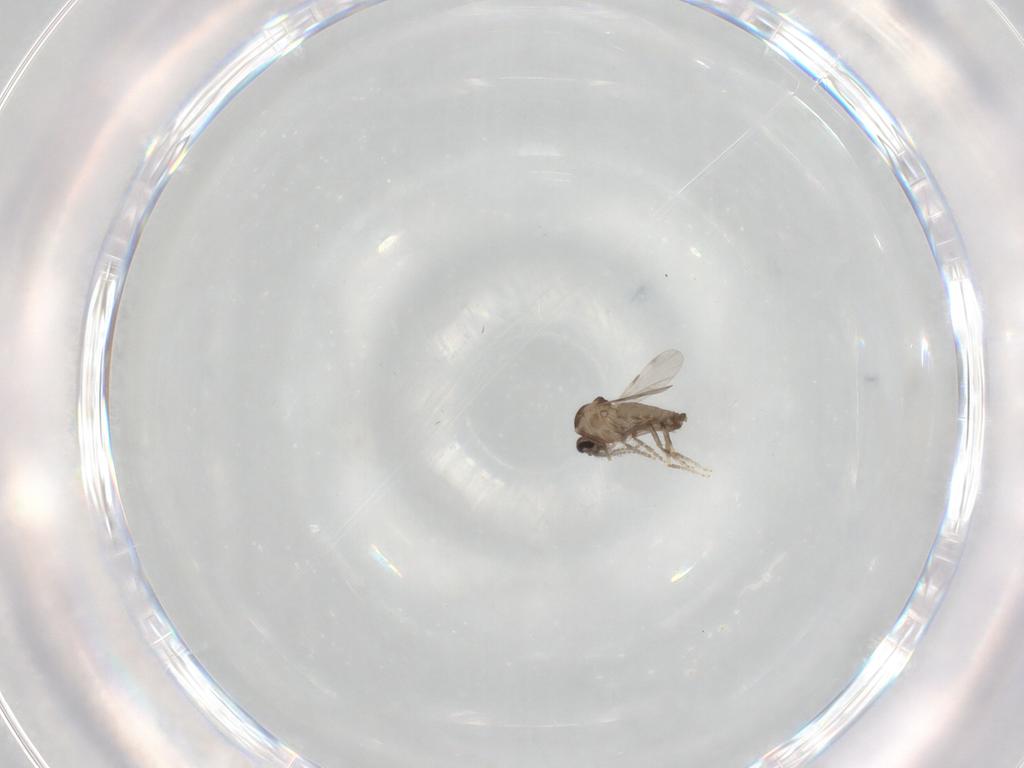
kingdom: Animalia
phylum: Arthropoda
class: Insecta
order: Diptera
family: Ceratopogonidae
